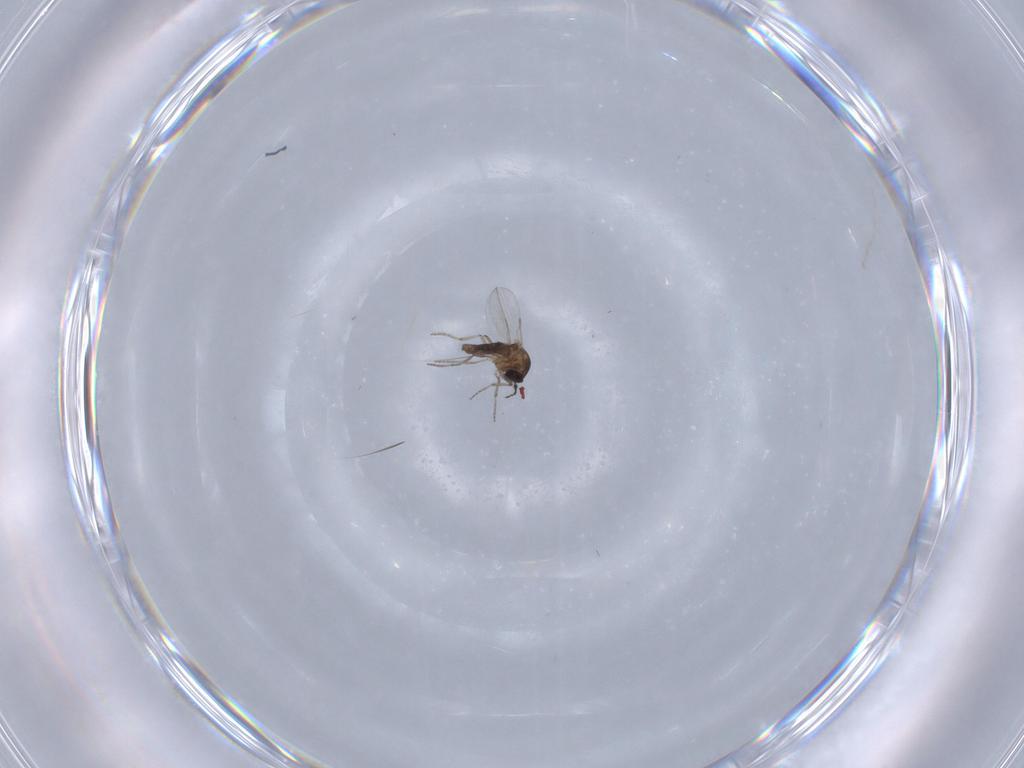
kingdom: Animalia
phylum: Arthropoda
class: Insecta
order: Diptera
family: Ceratopogonidae
